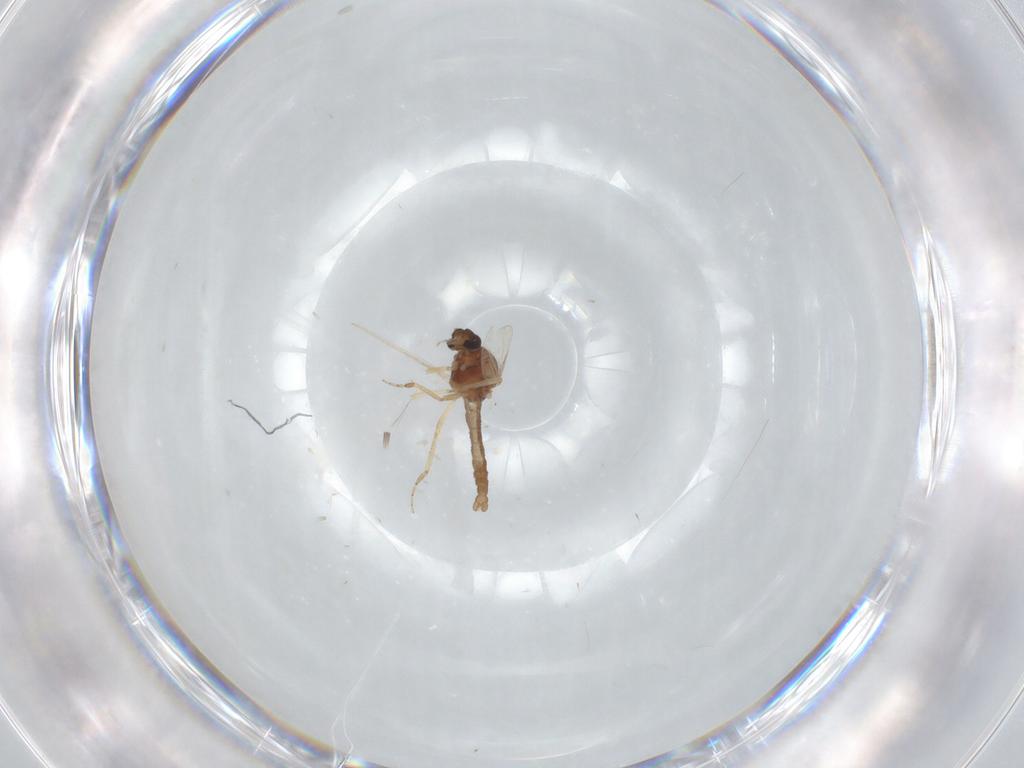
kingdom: Animalia
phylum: Arthropoda
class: Insecta
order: Diptera
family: Ceratopogonidae
